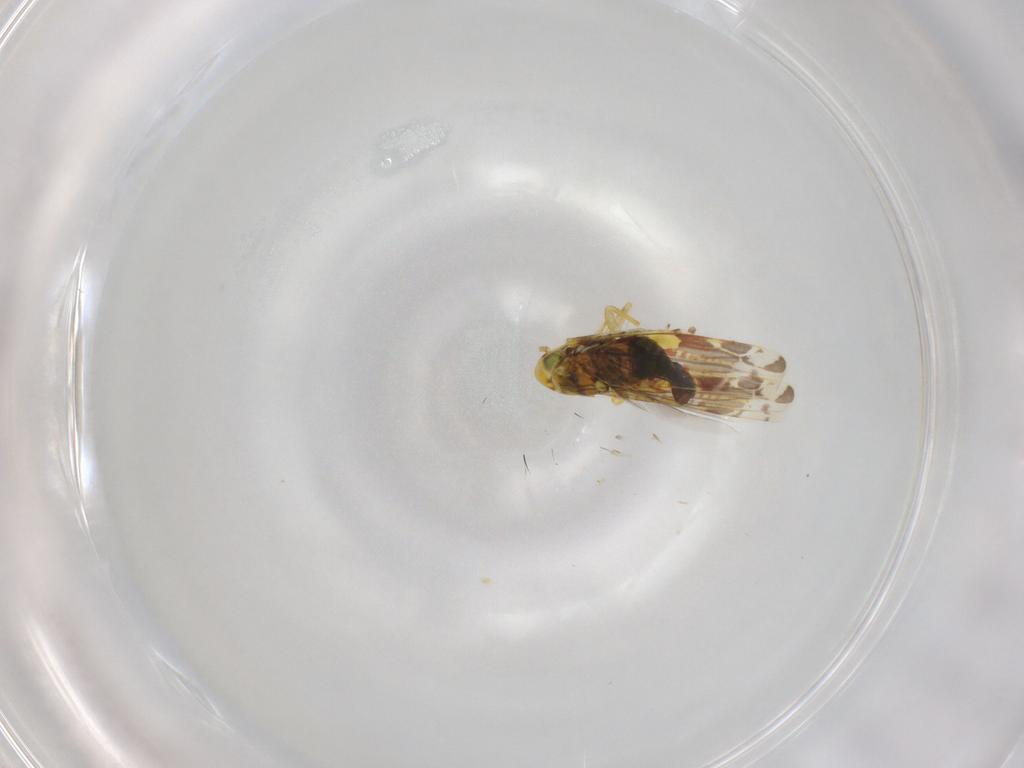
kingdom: Animalia
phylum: Arthropoda
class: Insecta
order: Hemiptera
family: Cicadellidae
